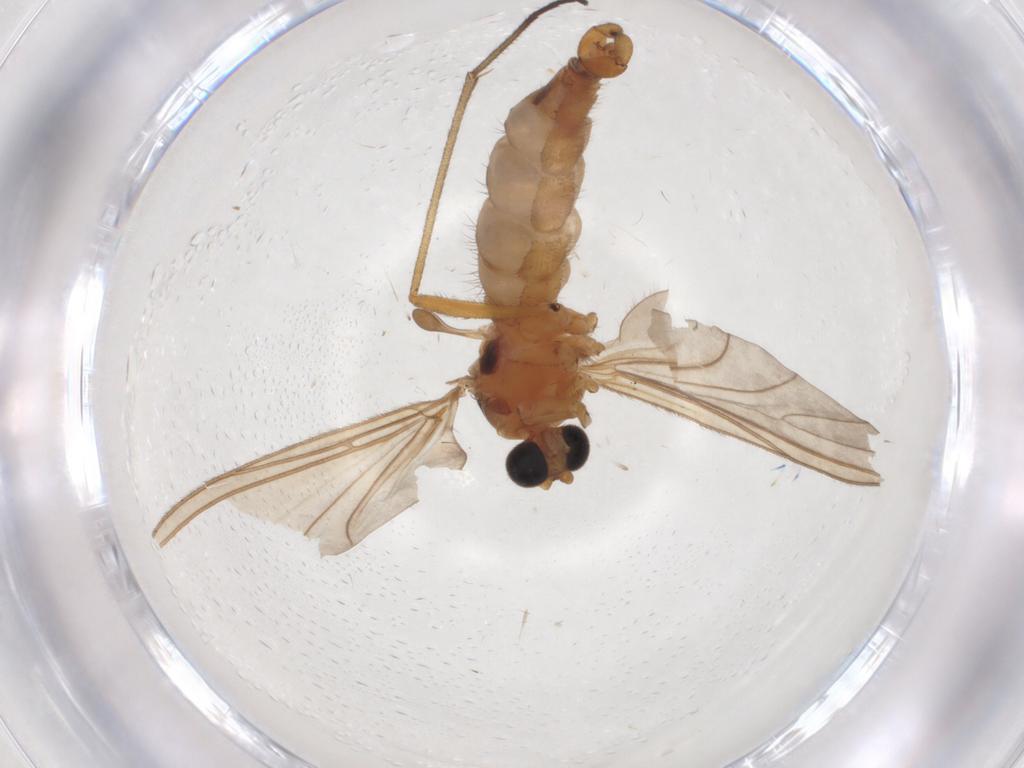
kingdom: Animalia
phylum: Arthropoda
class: Insecta
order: Diptera
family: Sciaridae
